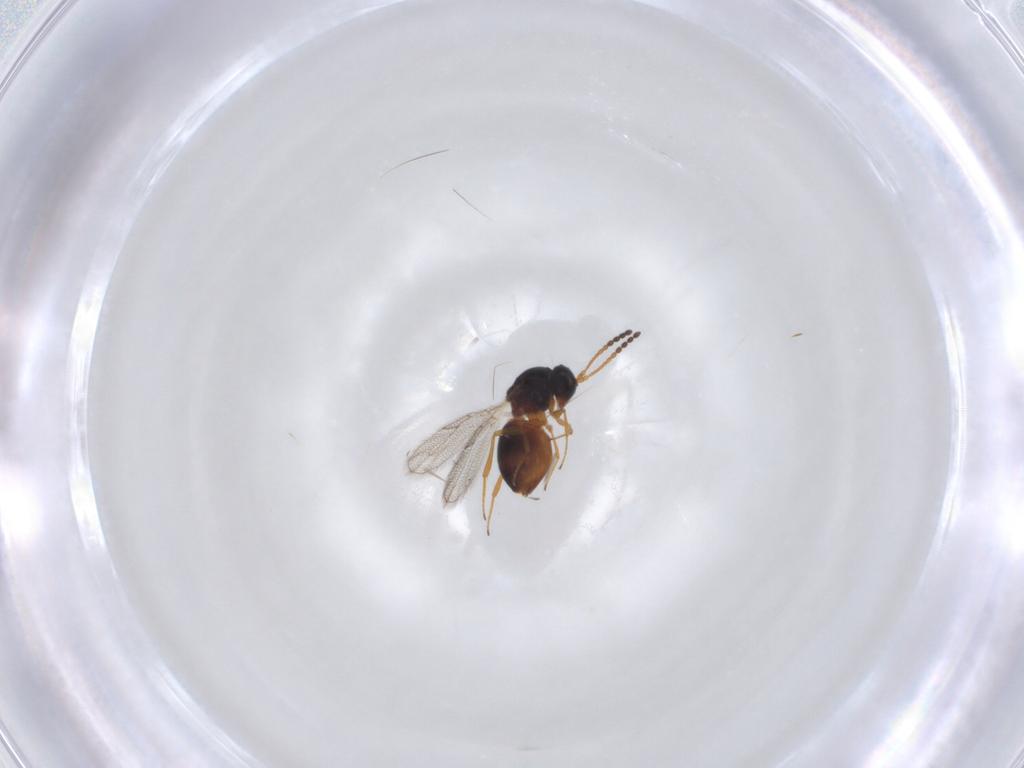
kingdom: Animalia
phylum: Arthropoda
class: Insecta
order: Hymenoptera
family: Figitidae
